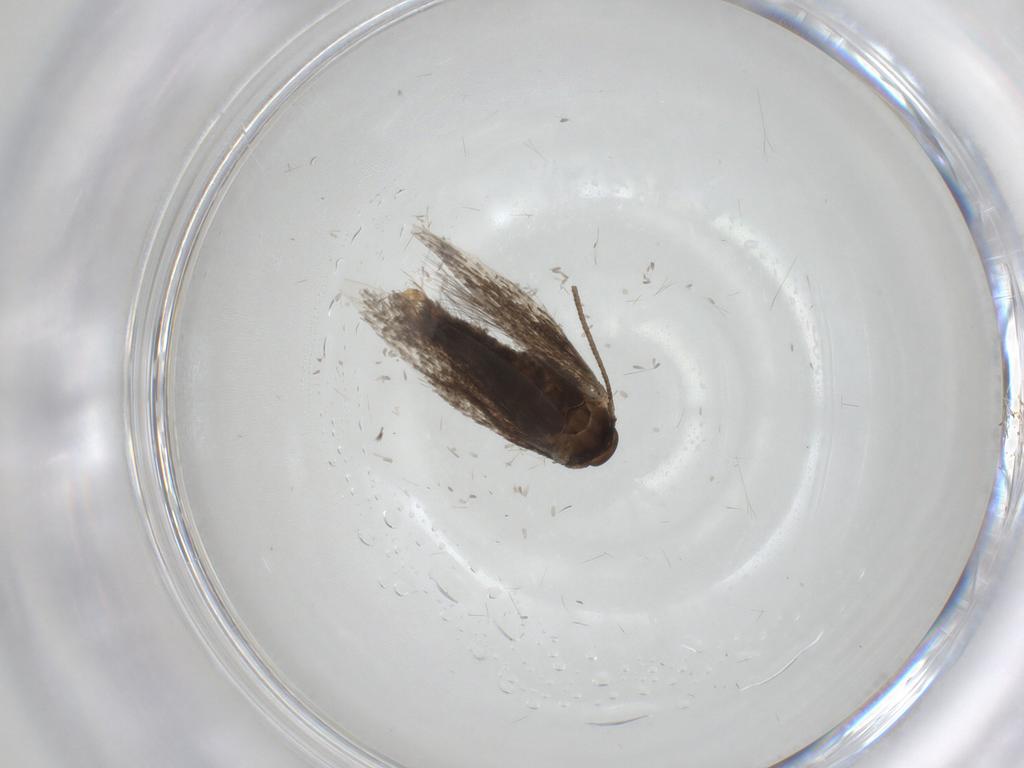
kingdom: Animalia
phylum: Arthropoda
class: Insecta
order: Lepidoptera
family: Elachistidae
